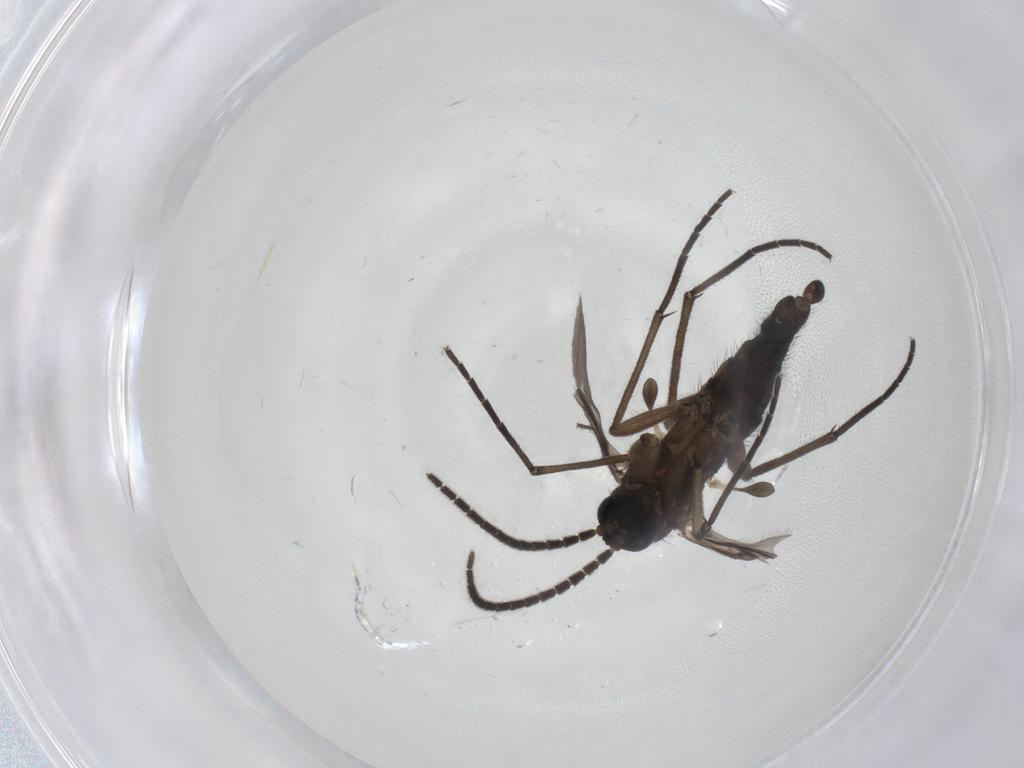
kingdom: Animalia
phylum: Arthropoda
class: Insecta
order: Diptera
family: Sciaridae
